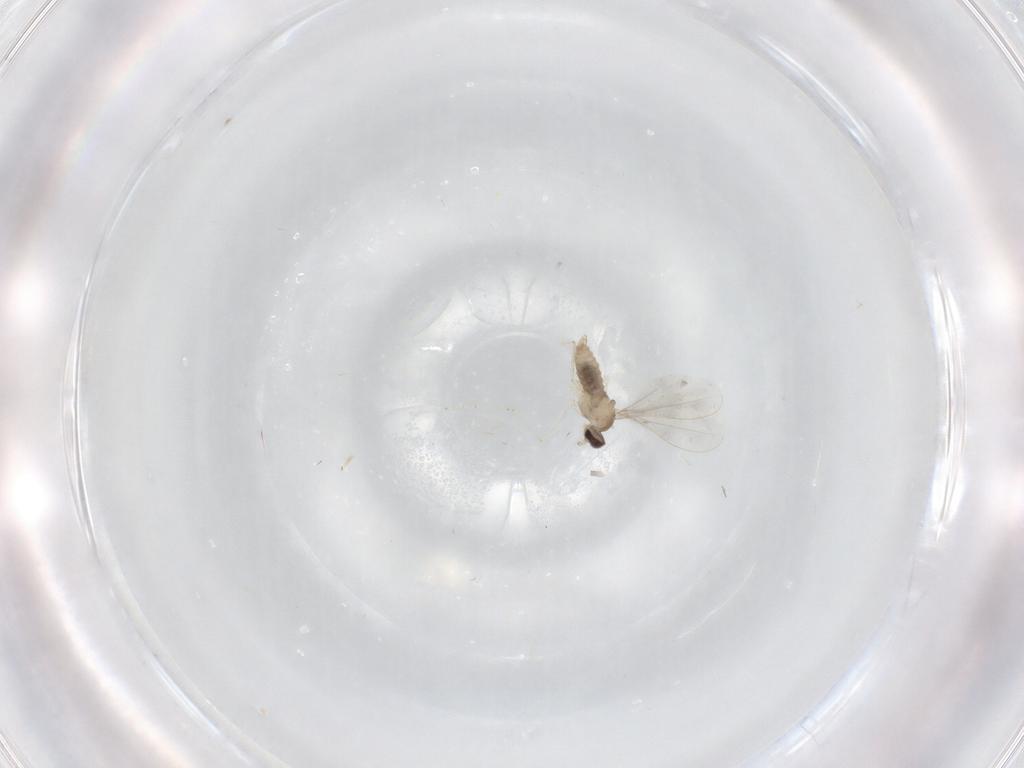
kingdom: Animalia
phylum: Arthropoda
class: Insecta
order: Diptera
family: Cecidomyiidae
